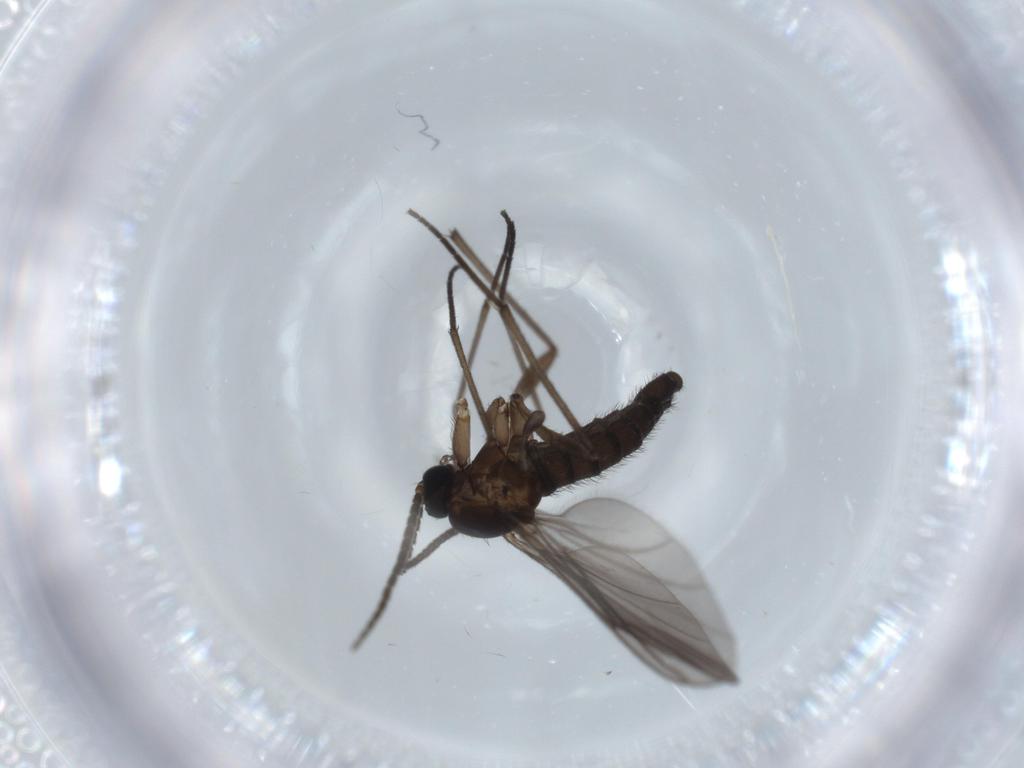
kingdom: Animalia
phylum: Arthropoda
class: Insecta
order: Diptera
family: Sciaridae
